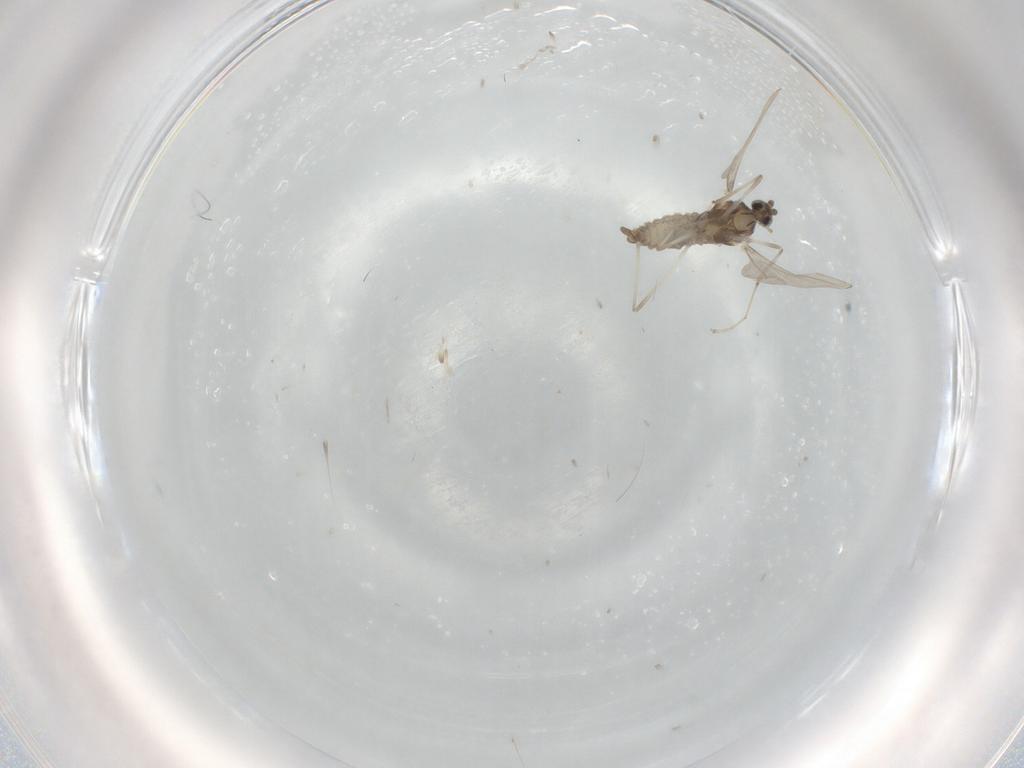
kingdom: Animalia
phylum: Arthropoda
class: Insecta
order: Diptera
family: Cecidomyiidae
